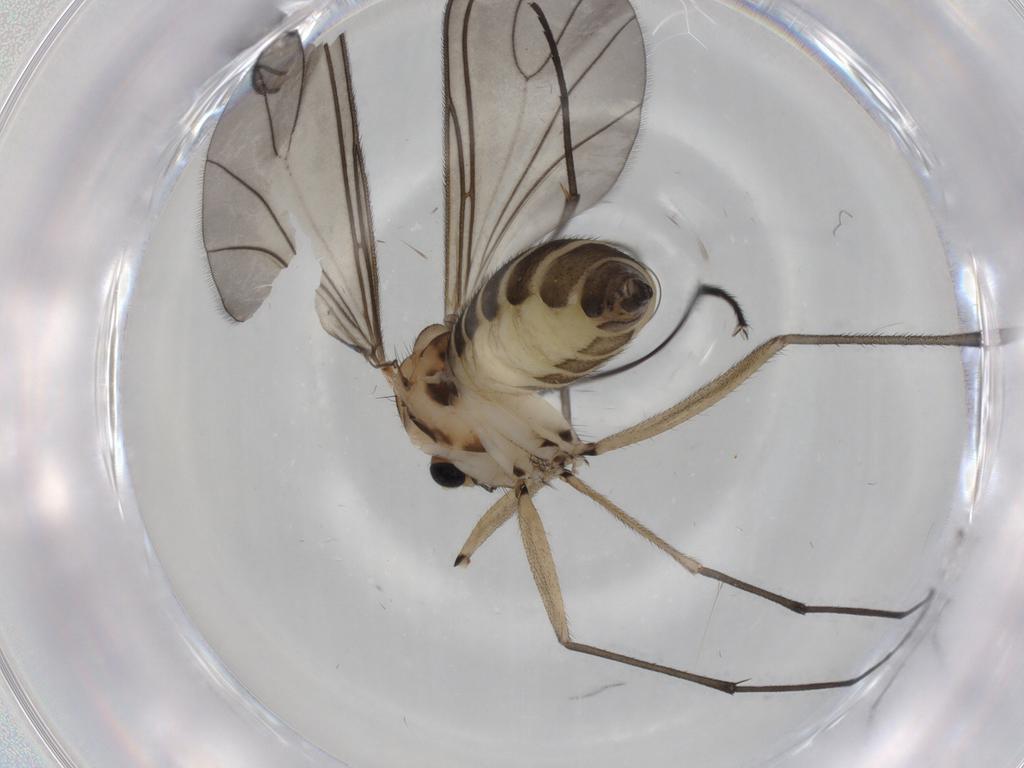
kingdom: Animalia
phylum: Arthropoda
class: Insecta
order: Diptera
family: Sciaridae
